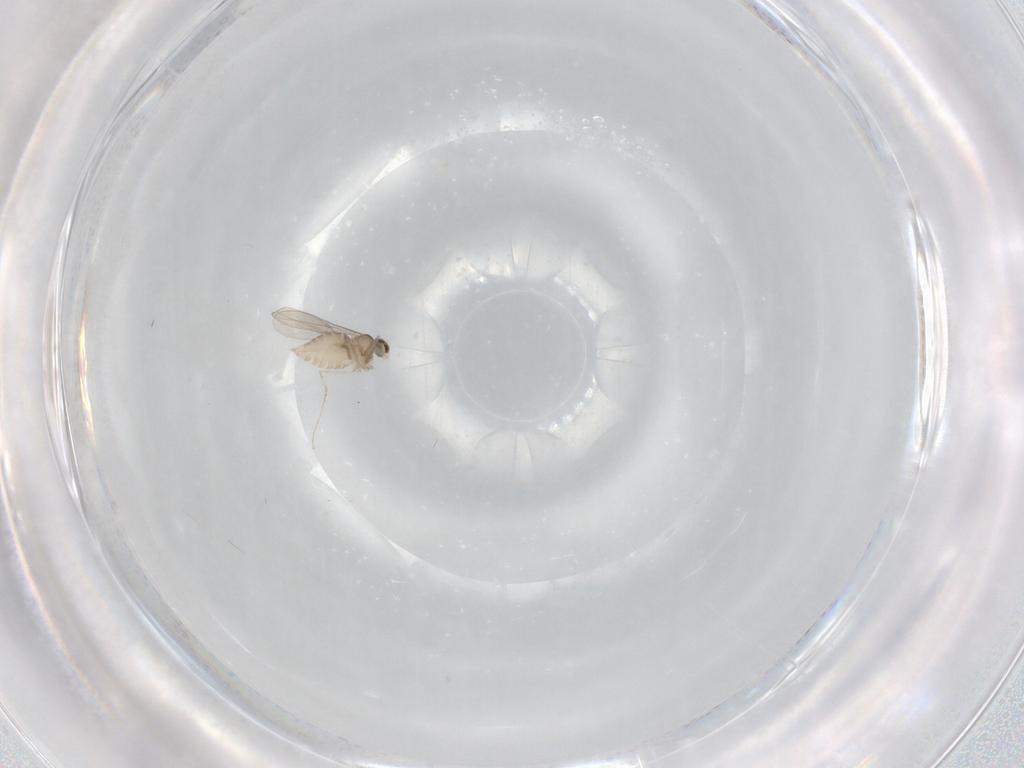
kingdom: Animalia
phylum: Arthropoda
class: Insecta
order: Diptera
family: Cecidomyiidae
